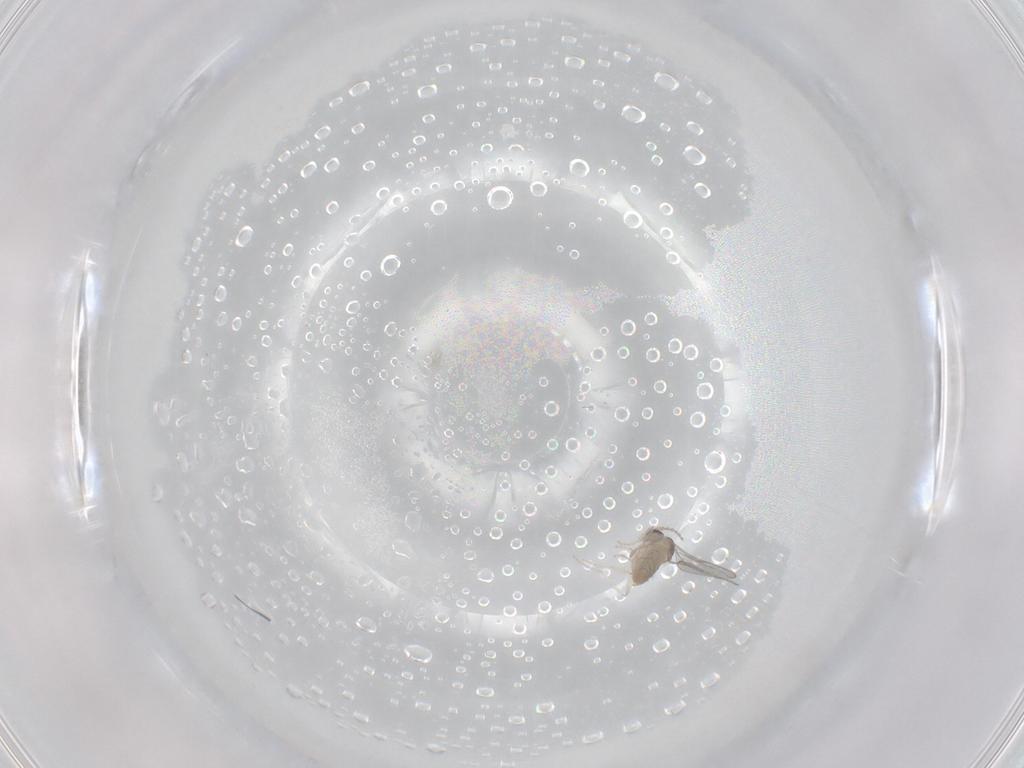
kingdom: Animalia
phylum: Arthropoda
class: Insecta
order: Diptera
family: Cecidomyiidae
